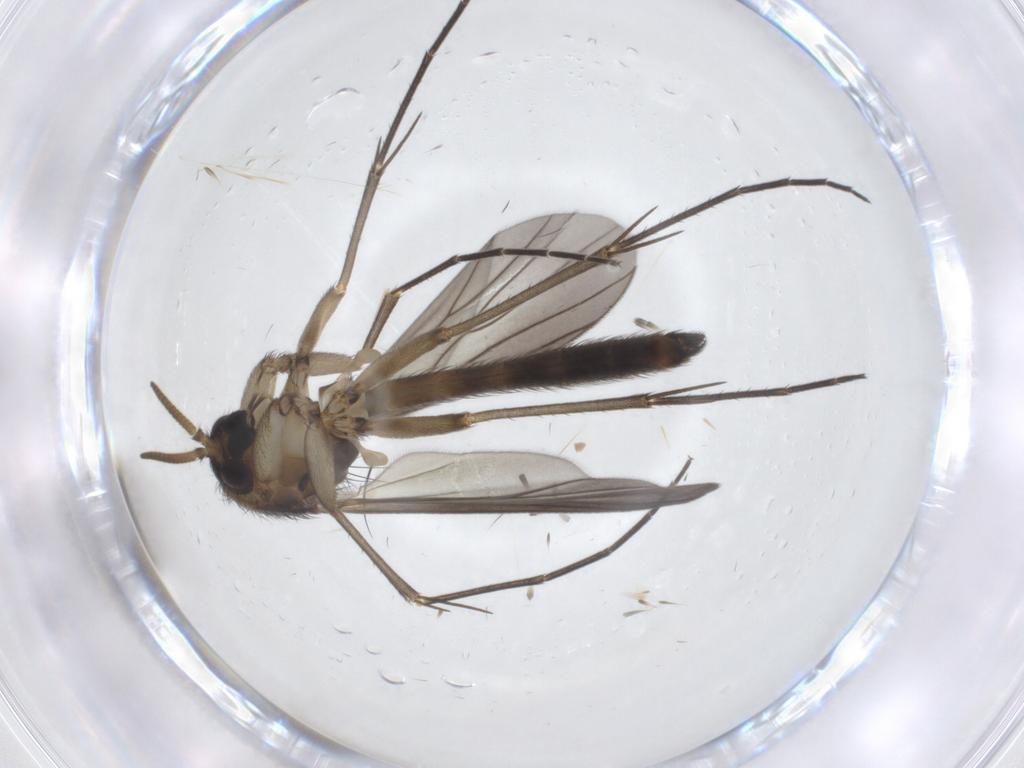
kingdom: Animalia
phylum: Arthropoda
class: Insecta
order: Diptera
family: Mycetophilidae
